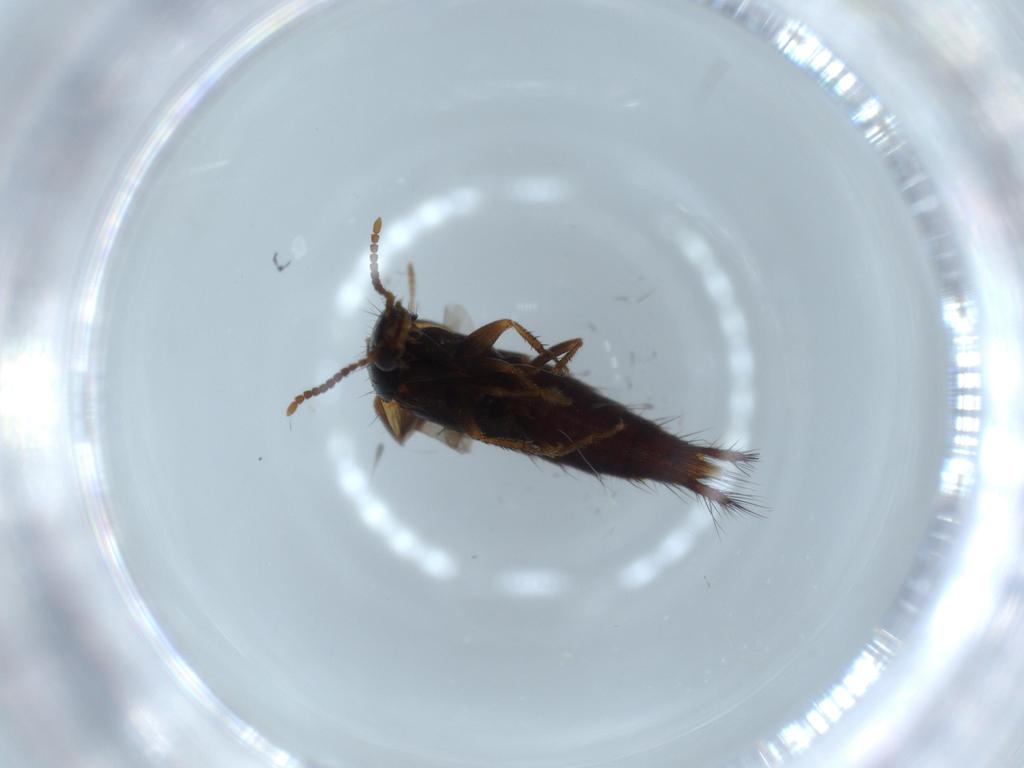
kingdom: Animalia
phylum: Arthropoda
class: Insecta
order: Coleoptera
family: Staphylinidae
